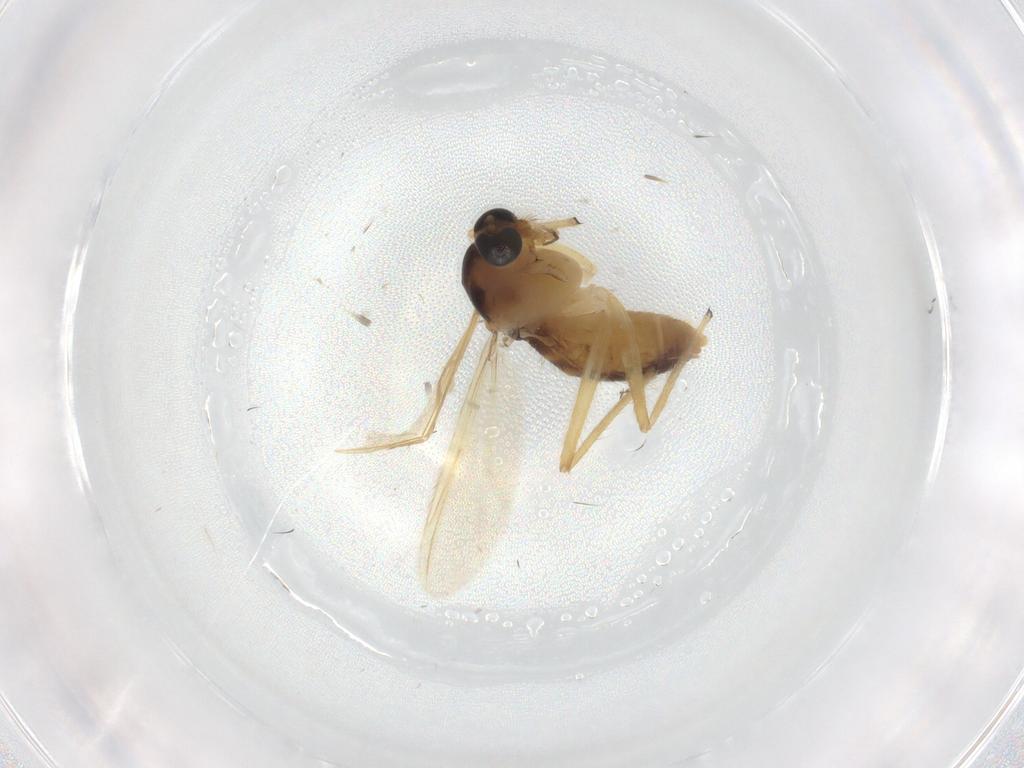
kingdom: Animalia
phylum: Arthropoda
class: Insecta
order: Diptera
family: Chironomidae
